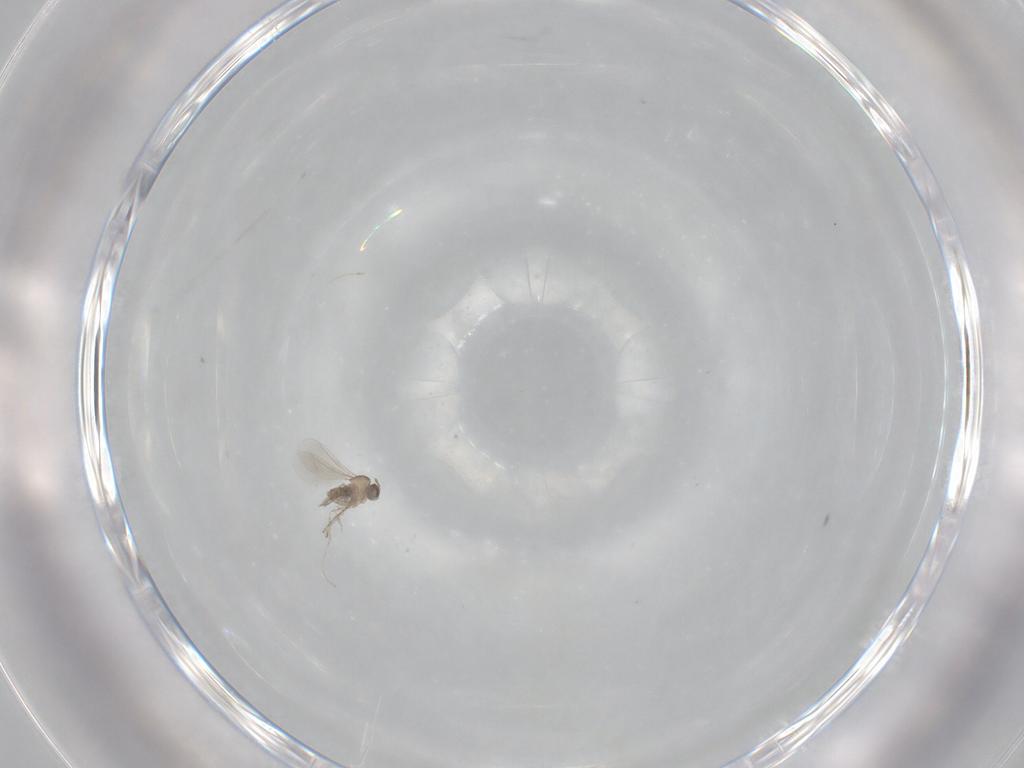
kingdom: Animalia
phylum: Arthropoda
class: Insecta
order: Diptera
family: Cecidomyiidae
